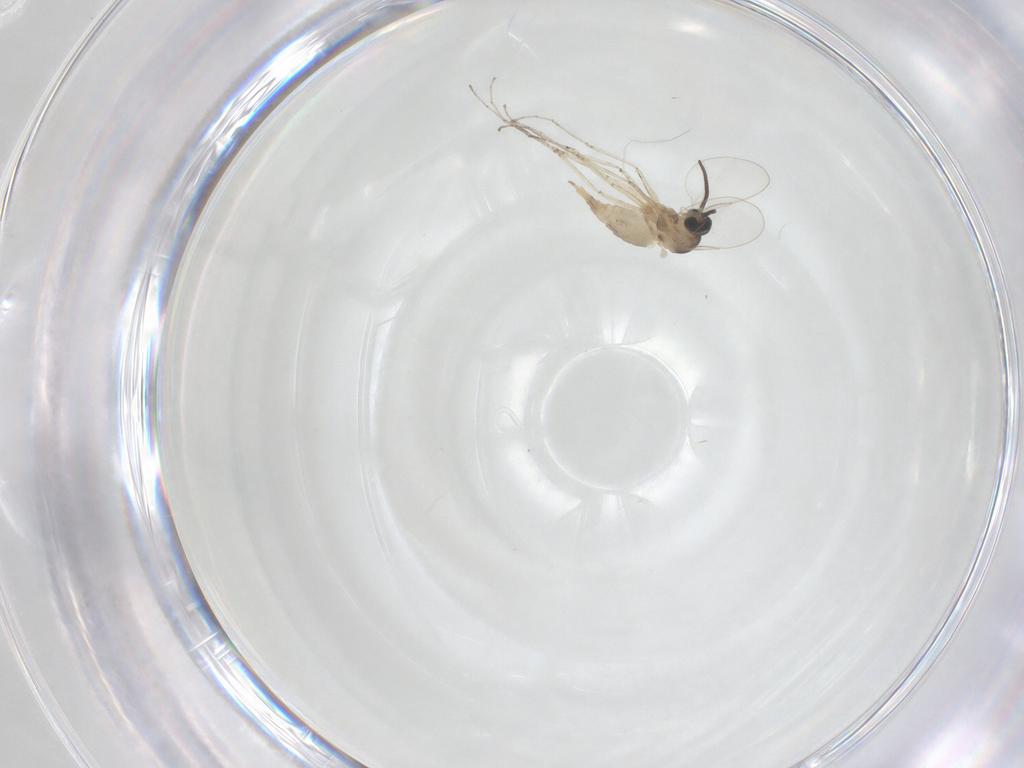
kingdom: Animalia
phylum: Arthropoda
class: Insecta
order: Diptera
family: Cecidomyiidae
